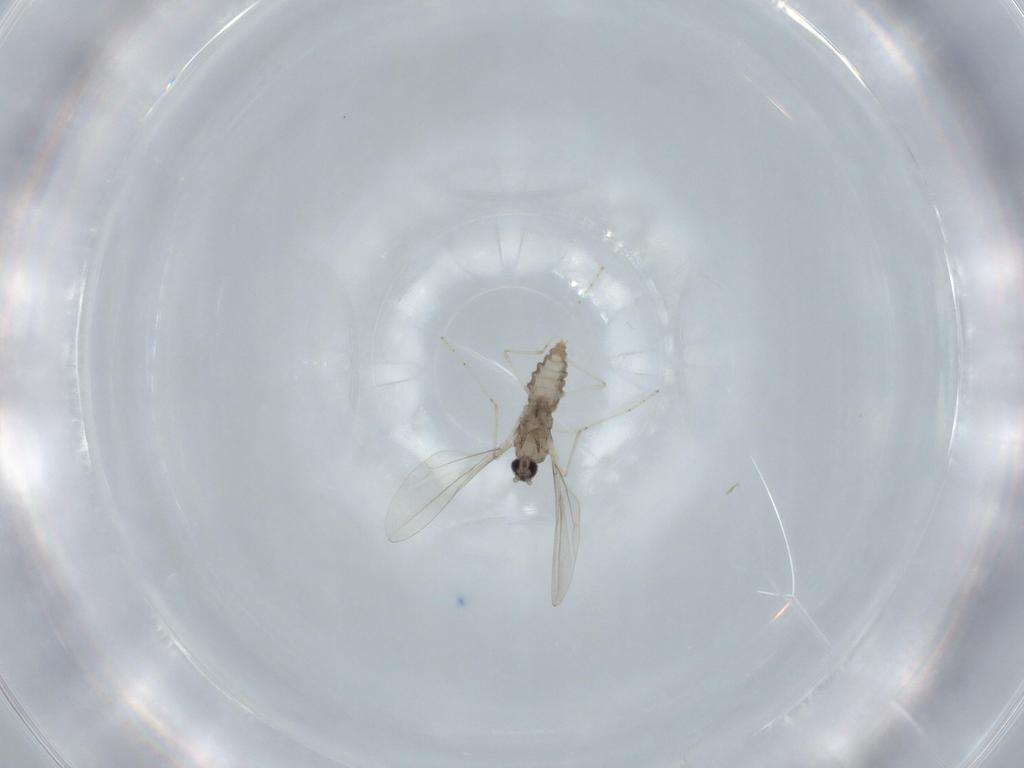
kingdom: Animalia
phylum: Arthropoda
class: Insecta
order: Diptera
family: Cecidomyiidae
